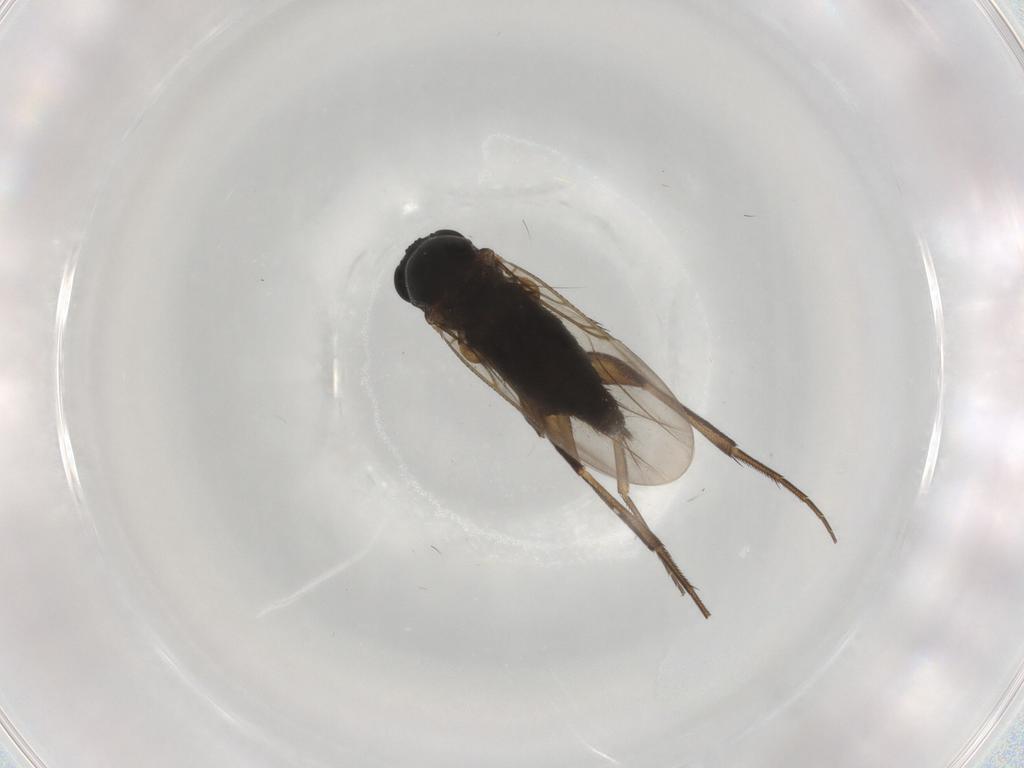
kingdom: Animalia
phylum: Arthropoda
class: Insecta
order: Diptera
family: Phoridae
